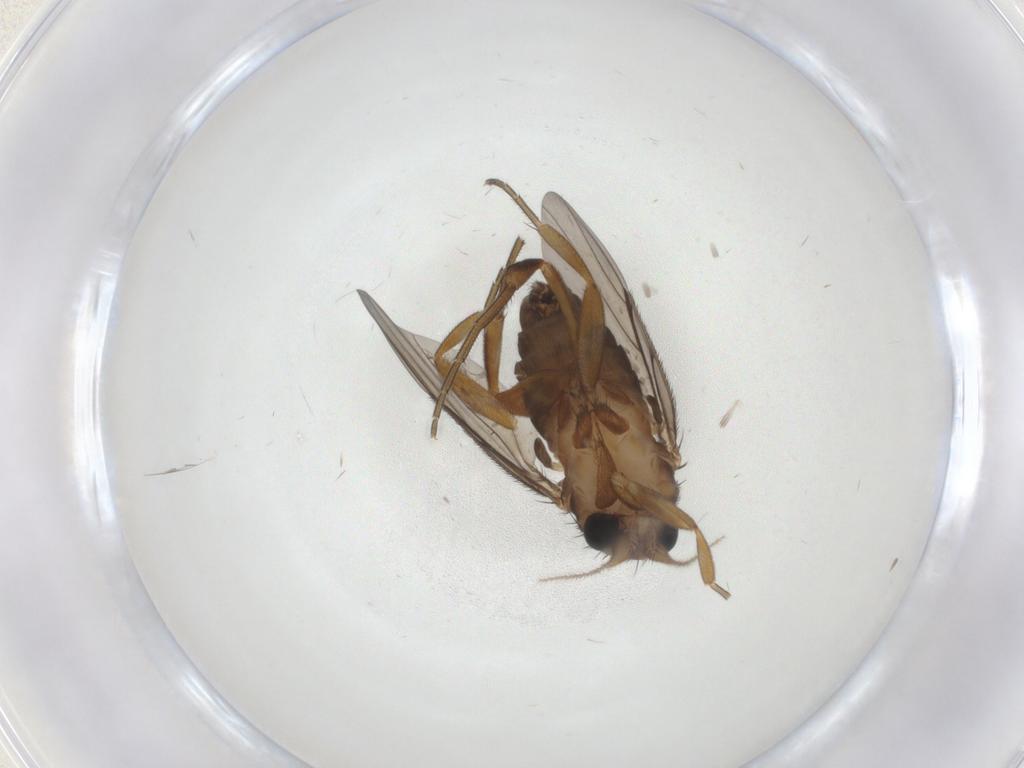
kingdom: Animalia
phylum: Arthropoda
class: Insecta
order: Diptera
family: Phoridae
